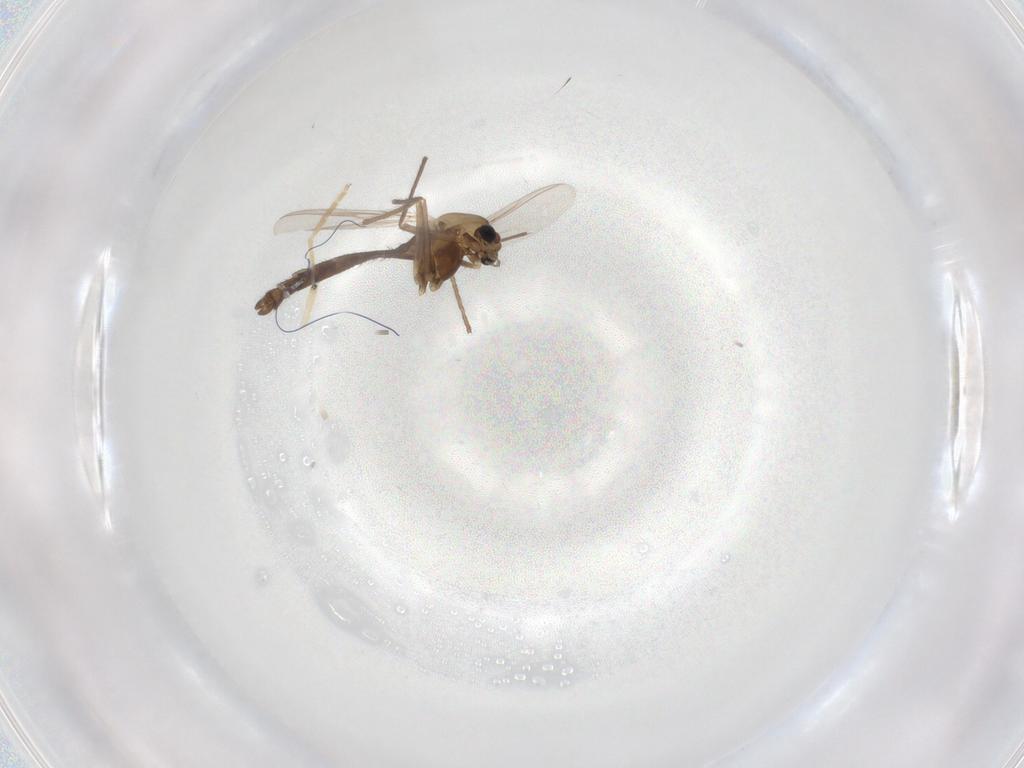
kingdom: Animalia
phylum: Arthropoda
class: Insecta
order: Diptera
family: Chironomidae
